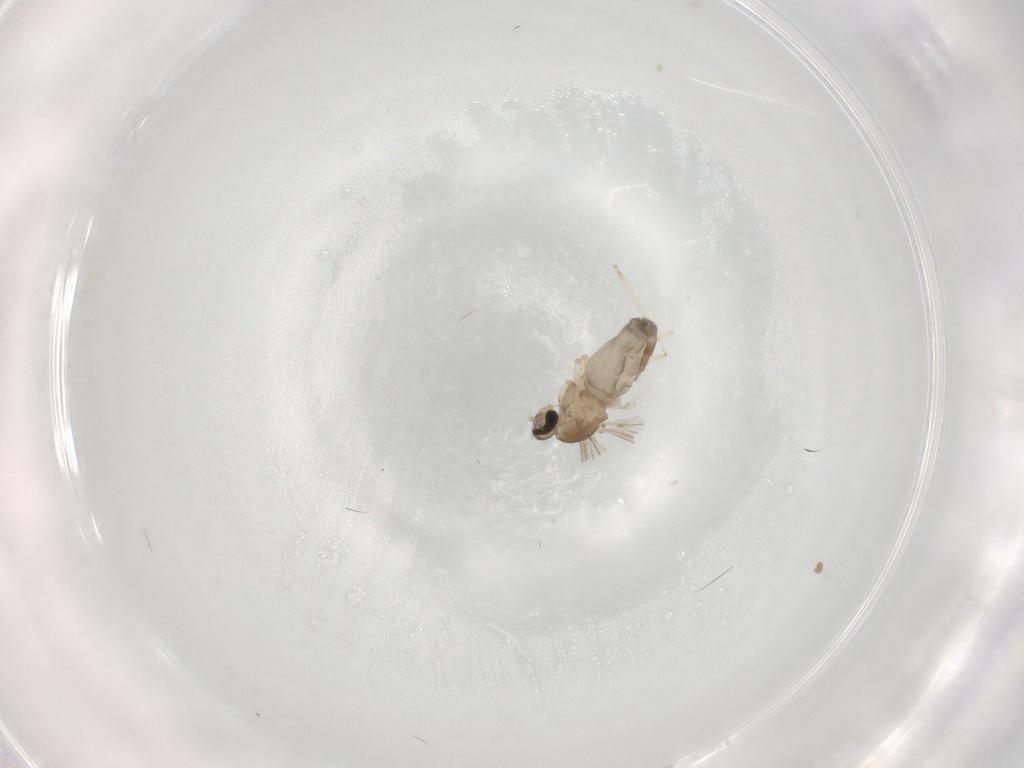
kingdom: Animalia
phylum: Arthropoda
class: Insecta
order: Diptera
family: Cecidomyiidae
